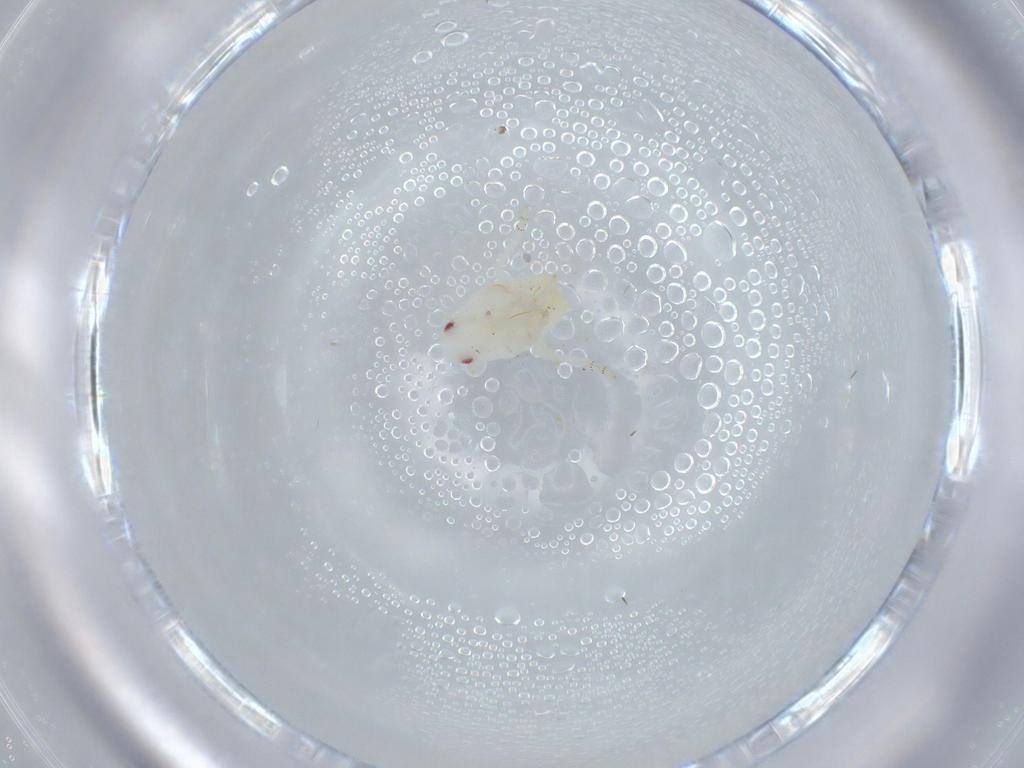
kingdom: Animalia
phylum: Arthropoda
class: Insecta
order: Hemiptera
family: Flatidae
